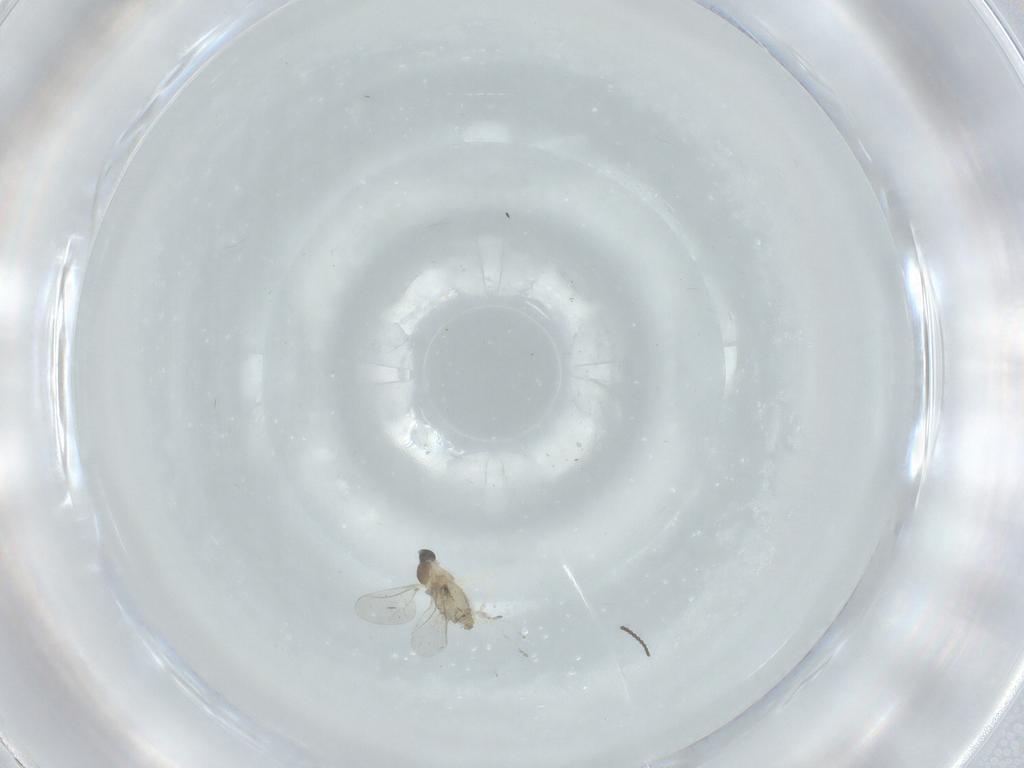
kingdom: Animalia
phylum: Arthropoda
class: Insecta
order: Diptera
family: Cecidomyiidae
